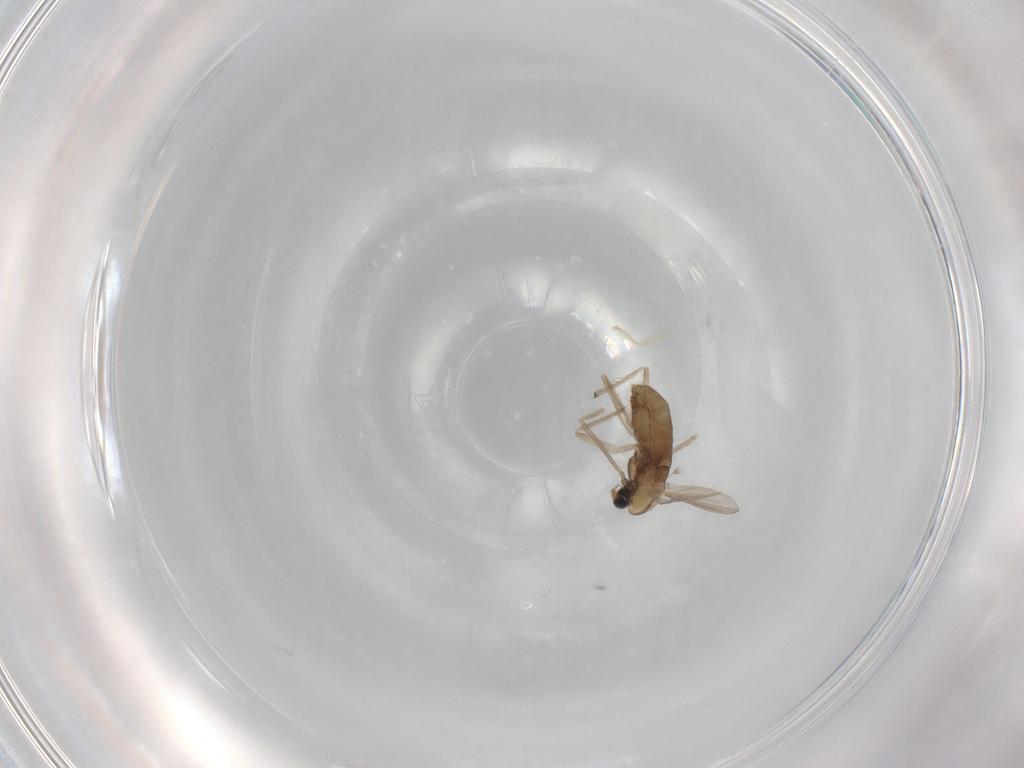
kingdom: Animalia
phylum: Arthropoda
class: Insecta
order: Diptera
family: Chironomidae
